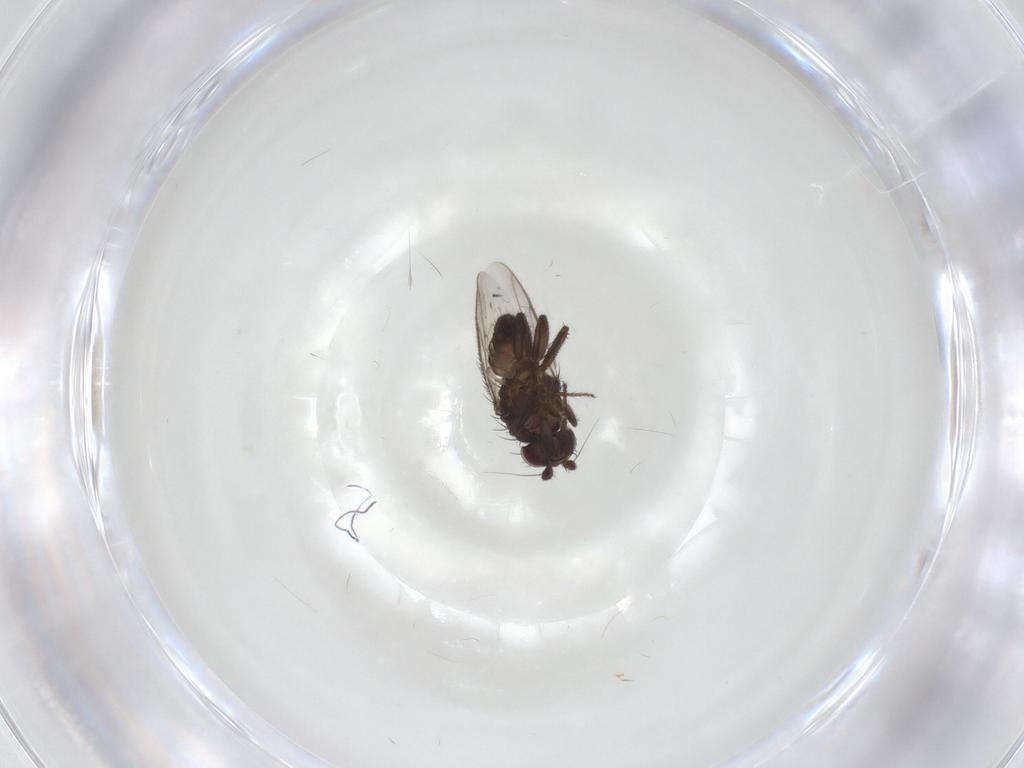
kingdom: Animalia
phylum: Arthropoda
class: Insecta
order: Diptera
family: Sphaeroceridae
